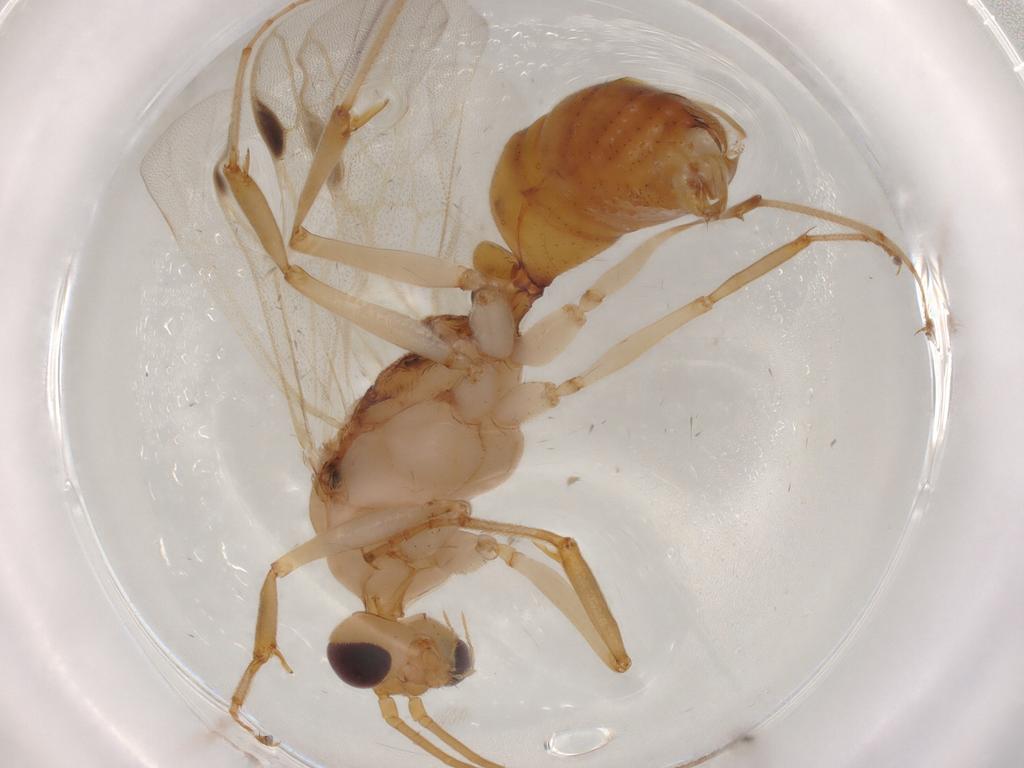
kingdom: Animalia
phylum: Arthropoda
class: Insecta
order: Hymenoptera
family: Formicidae
